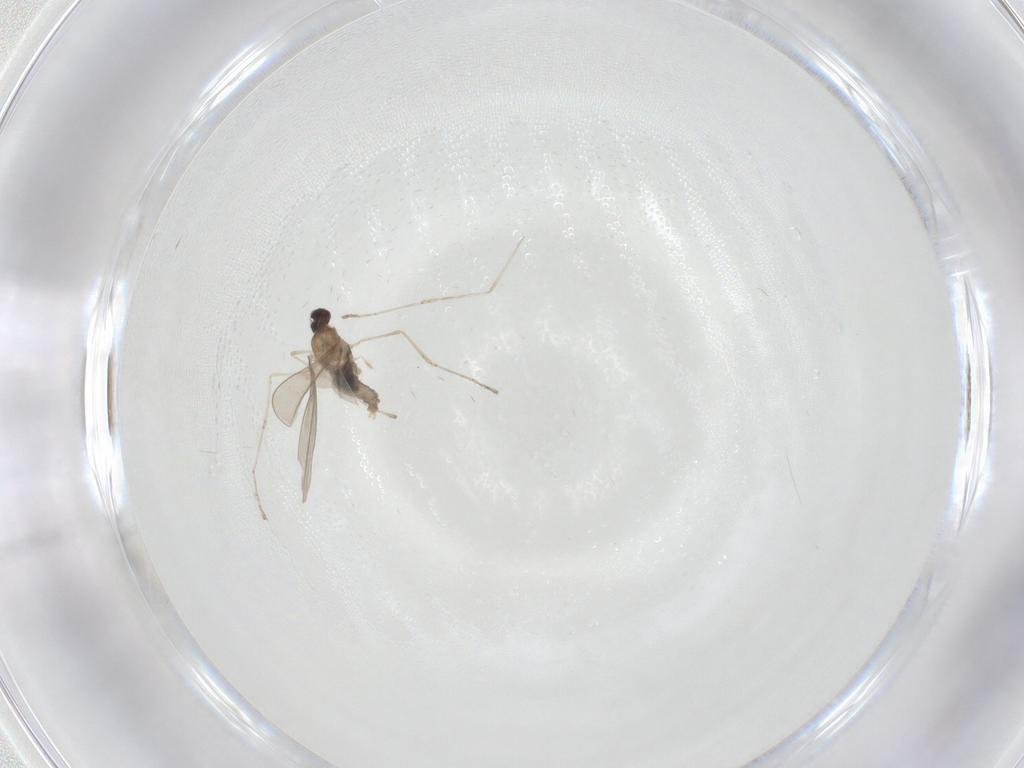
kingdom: Animalia
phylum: Arthropoda
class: Insecta
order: Diptera
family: Cecidomyiidae
